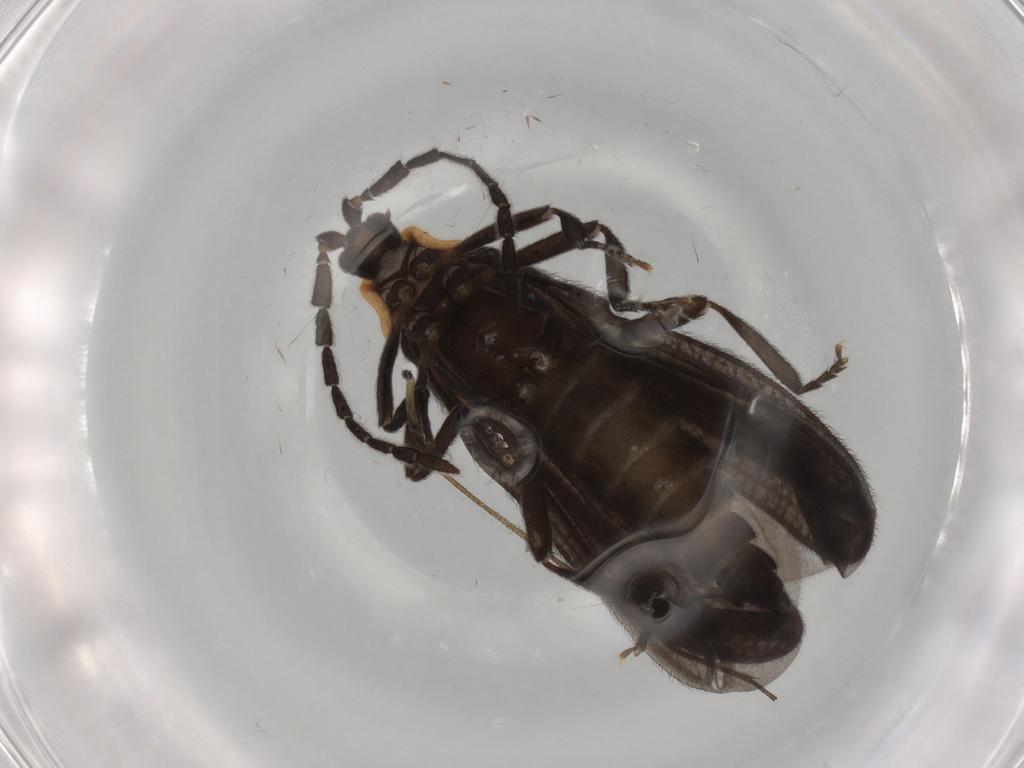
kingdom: Animalia
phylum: Arthropoda
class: Insecta
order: Coleoptera
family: Lycidae
